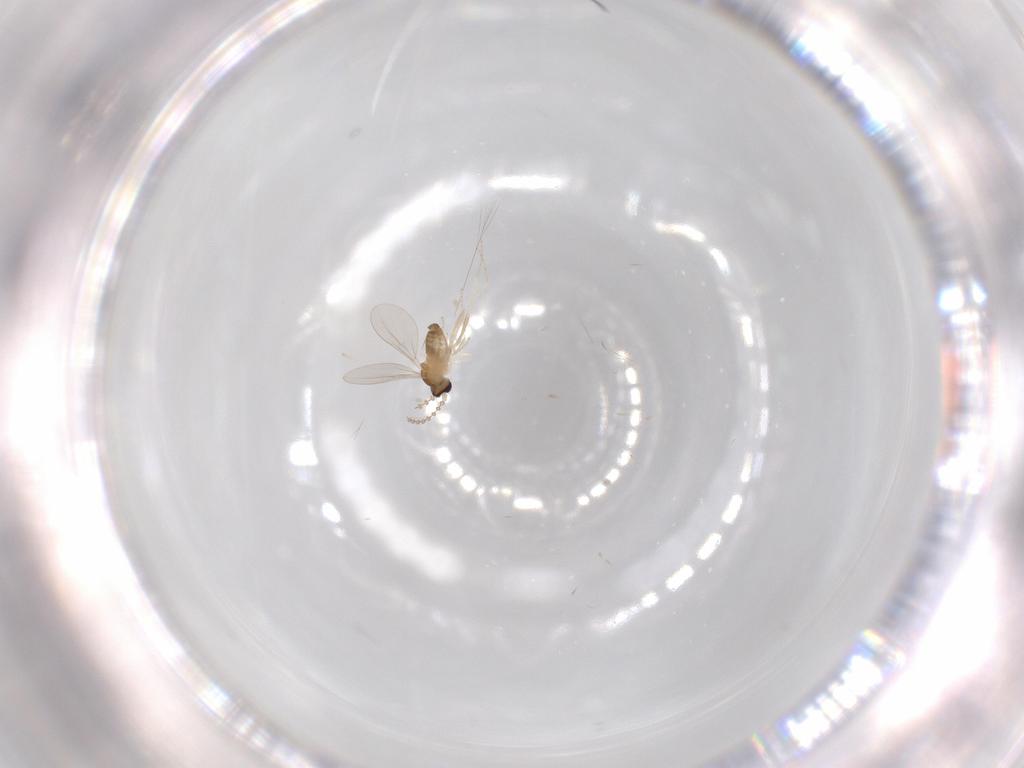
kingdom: Animalia
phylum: Arthropoda
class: Insecta
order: Diptera
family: Cecidomyiidae
